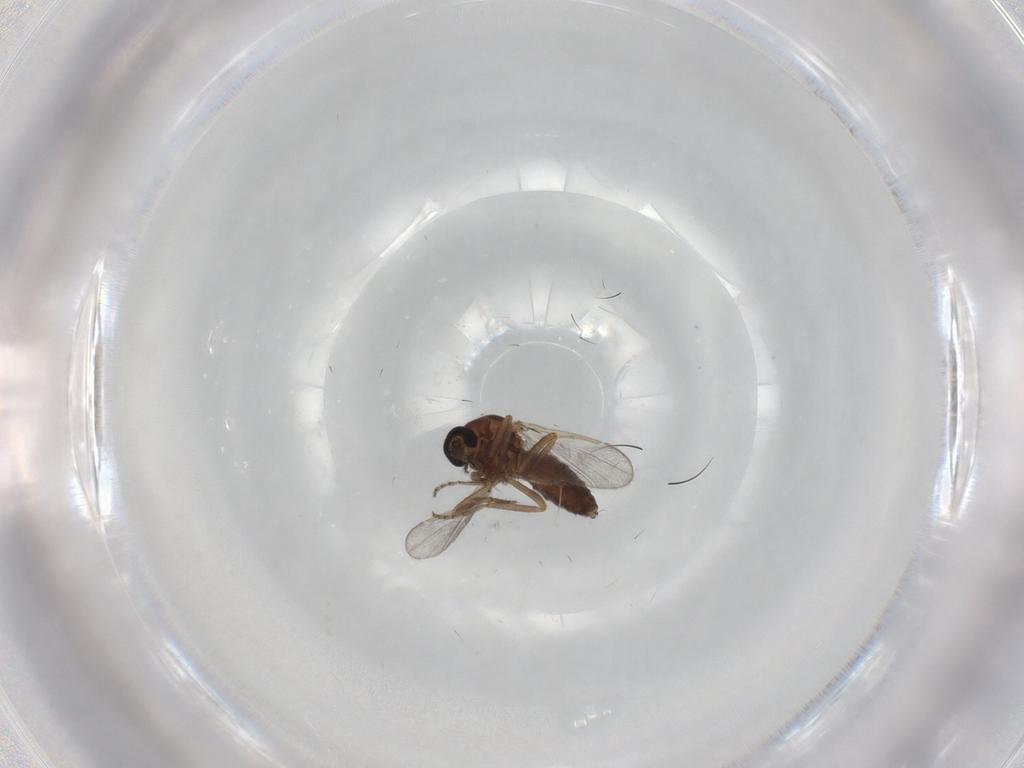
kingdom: Animalia
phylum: Arthropoda
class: Insecta
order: Diptera
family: Ceratopogonidae
